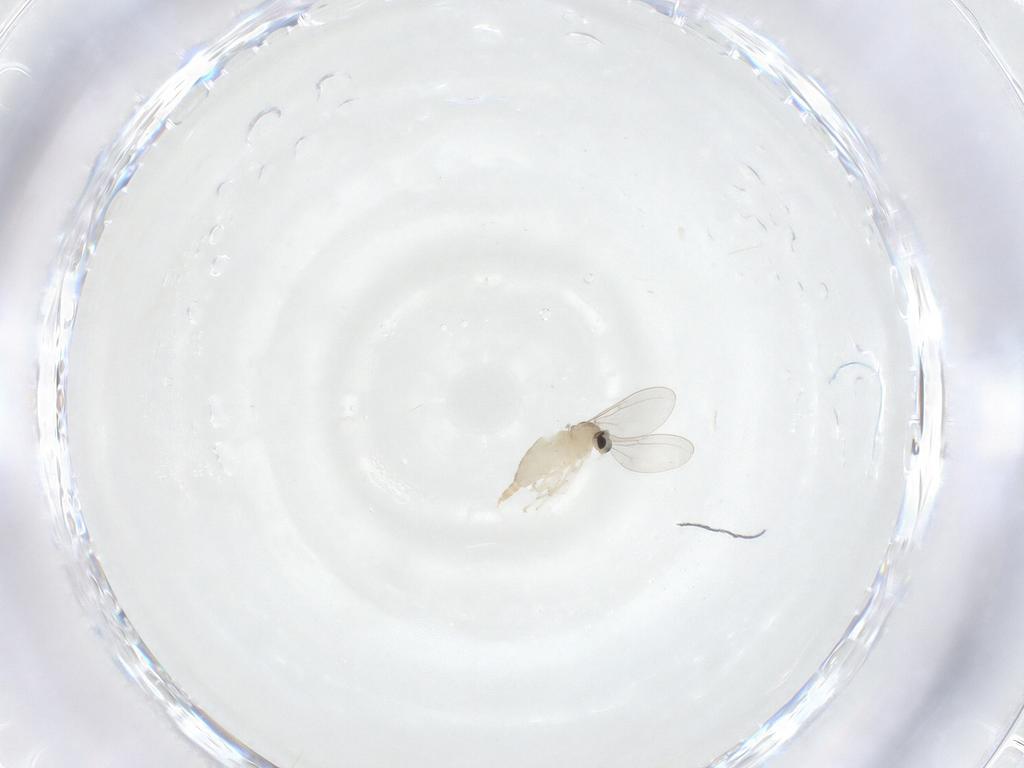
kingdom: Animalia
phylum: Arthropoda
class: Insecta
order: Diptera
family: Cecidomyiidae
